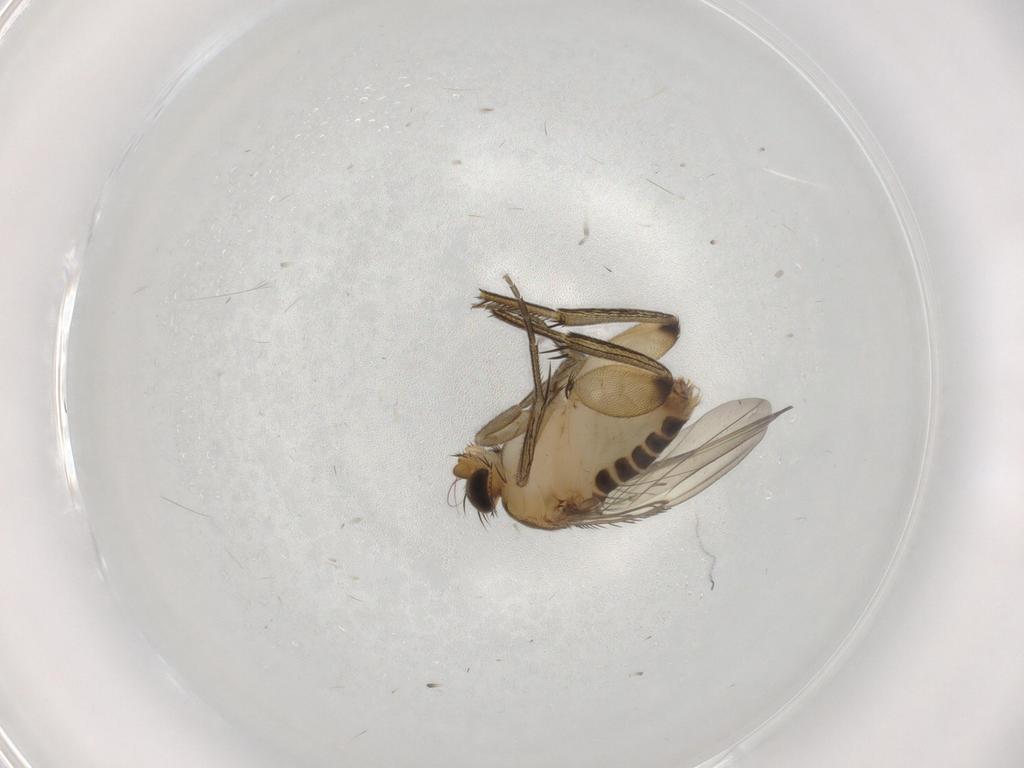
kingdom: Animalia
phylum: Arthropoda
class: Insecta
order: Diptera
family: Phoridae
